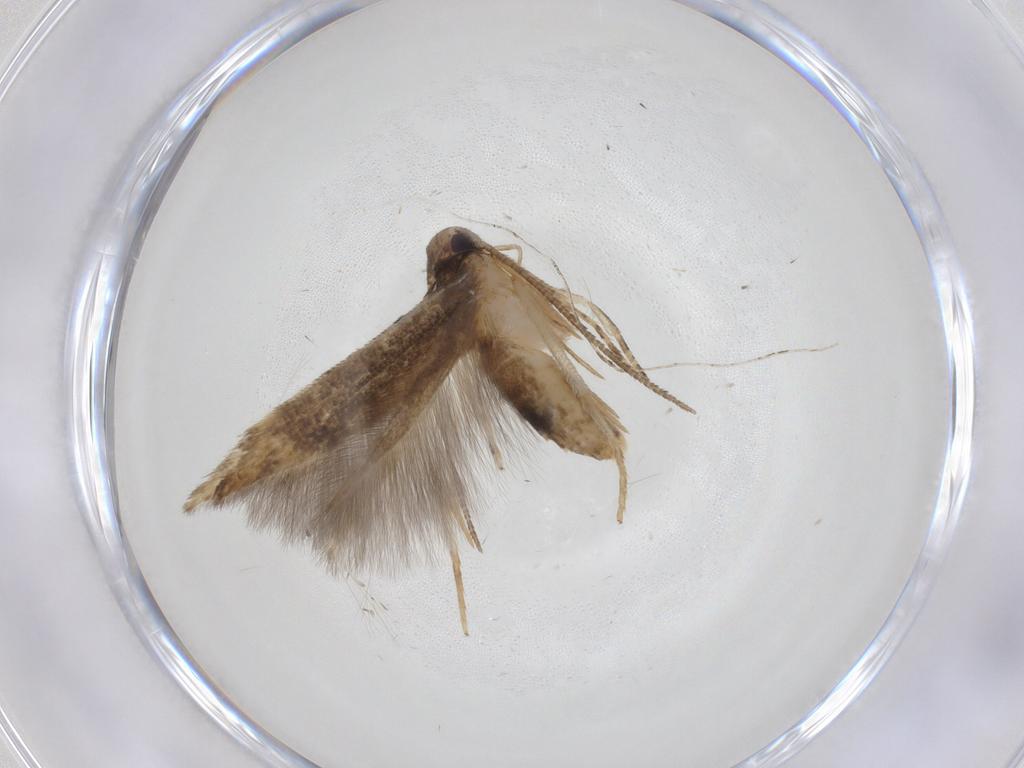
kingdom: Animalia
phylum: Arthropoda
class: Insecta
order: Lepidoptera
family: Cosmopterigidae
